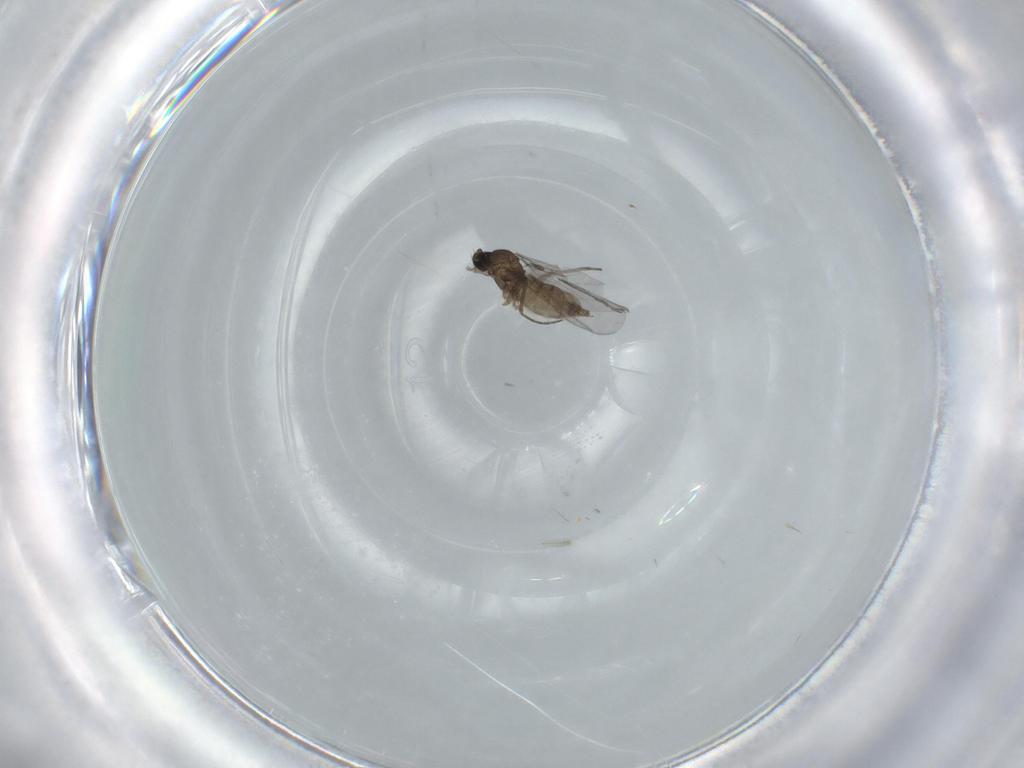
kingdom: Animalia
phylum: Arthropoda
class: Insecta
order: Diptera
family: Sciaridae
